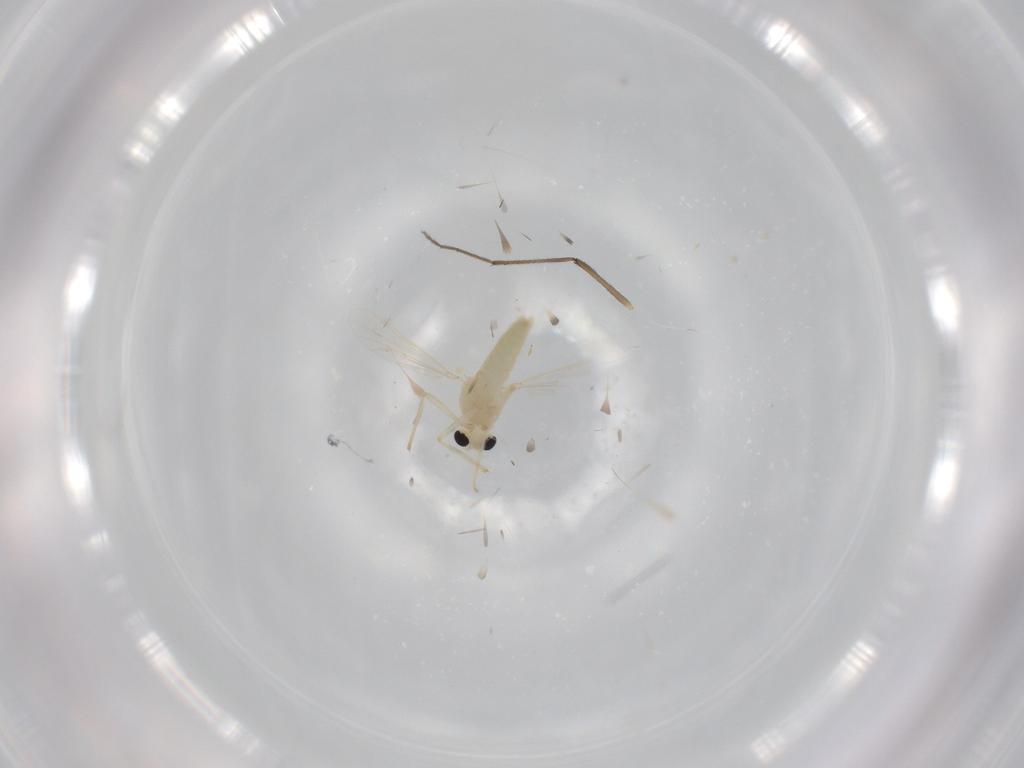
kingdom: Animalia
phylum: Arthropoda
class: Insecta
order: Diptera
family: Chironomidae
